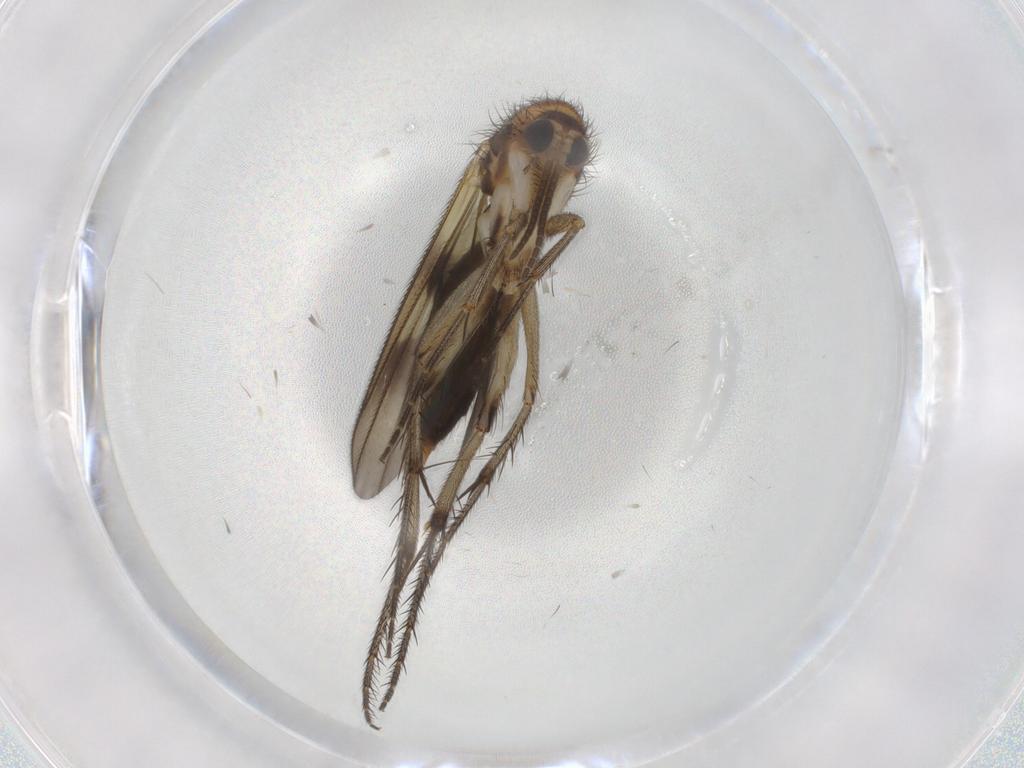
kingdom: Animalia
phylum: Arthropoda
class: Insecta
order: Diptera
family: Mycetophilidae
